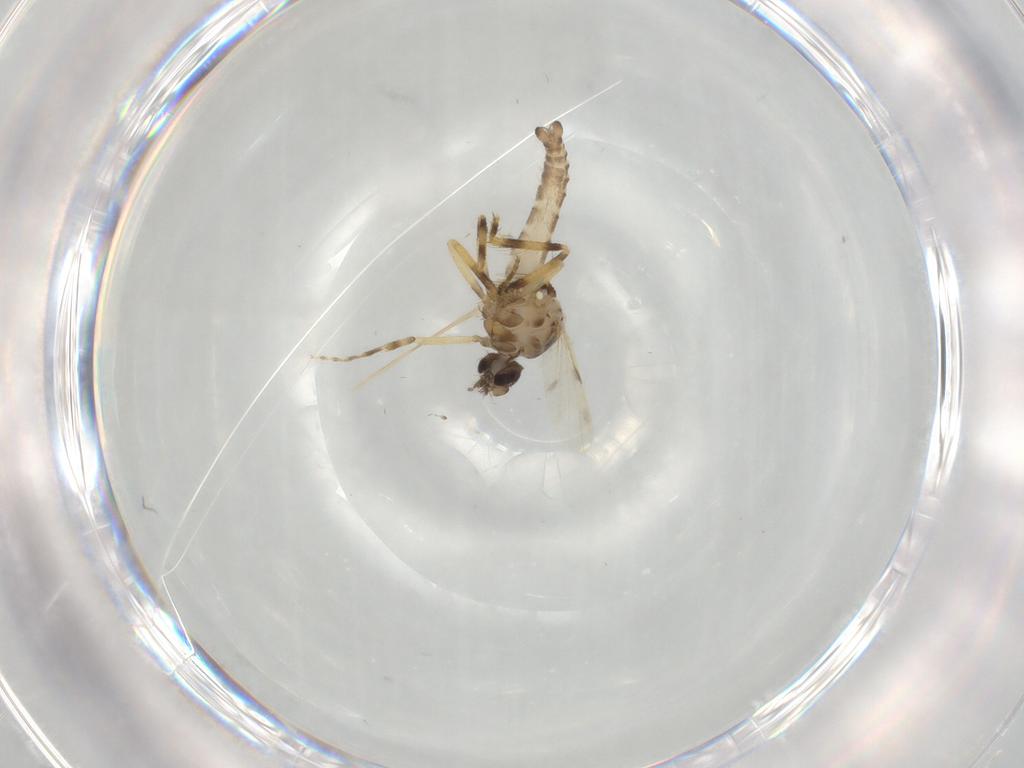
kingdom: Animalia
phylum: Arthropoda
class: Insecta
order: Diptera
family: Ceratopogonidae
